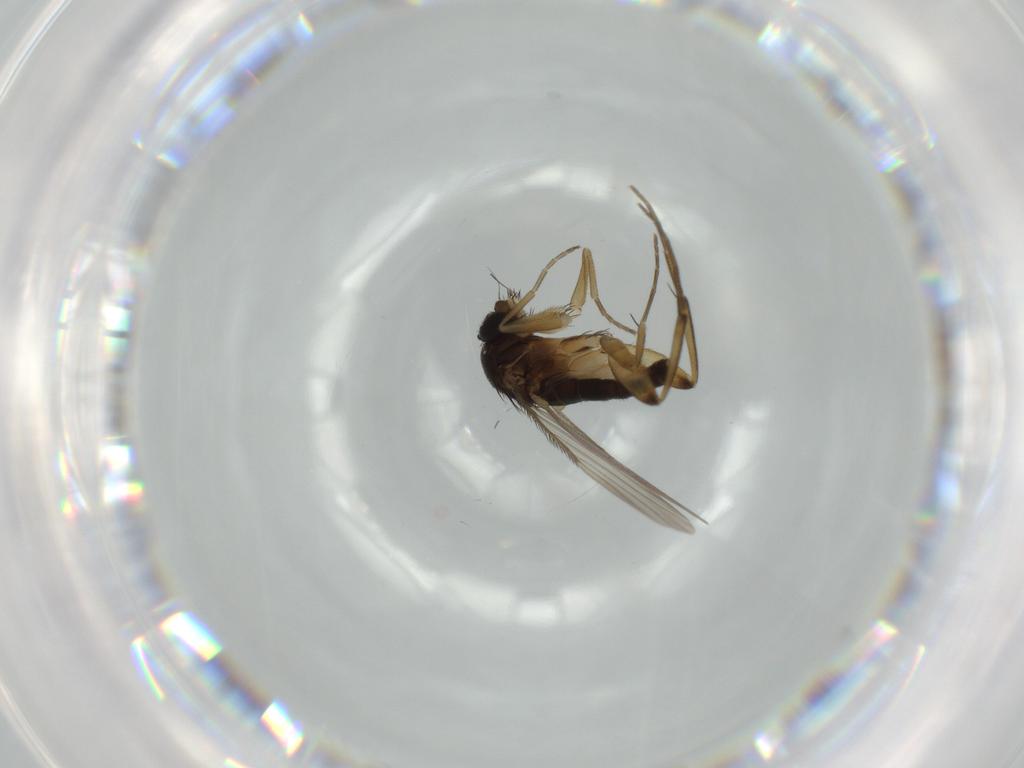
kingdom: Animalia
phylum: Arthropoda
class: Insecta
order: Diptera
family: Phoridae
